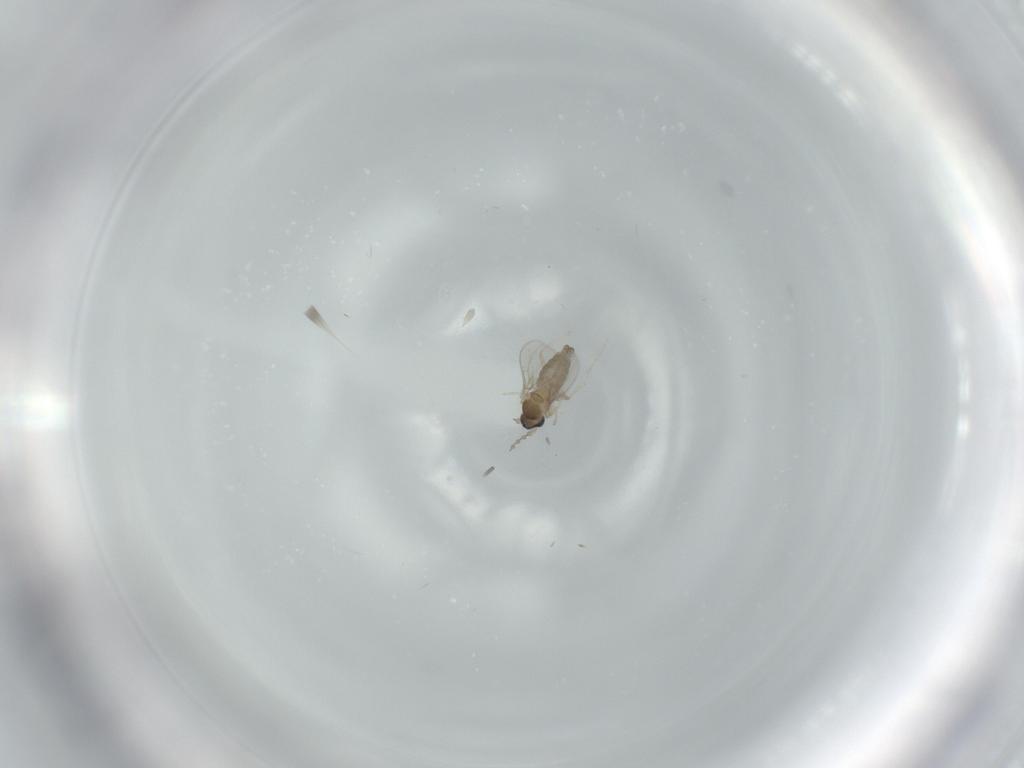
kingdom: Animalia
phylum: Arthropoda
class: Insecta
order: Diptera
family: Cecidomyiidae
